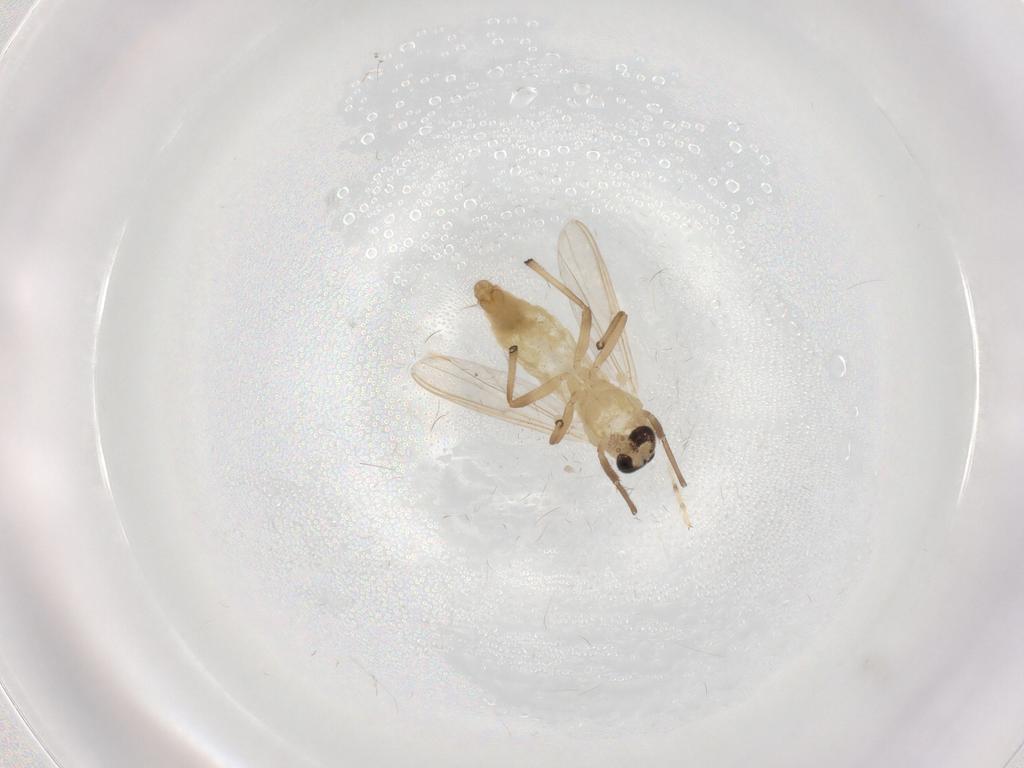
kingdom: Animalia
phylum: Arthropoda
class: Insecta
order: Diptera
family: Chironomidae
